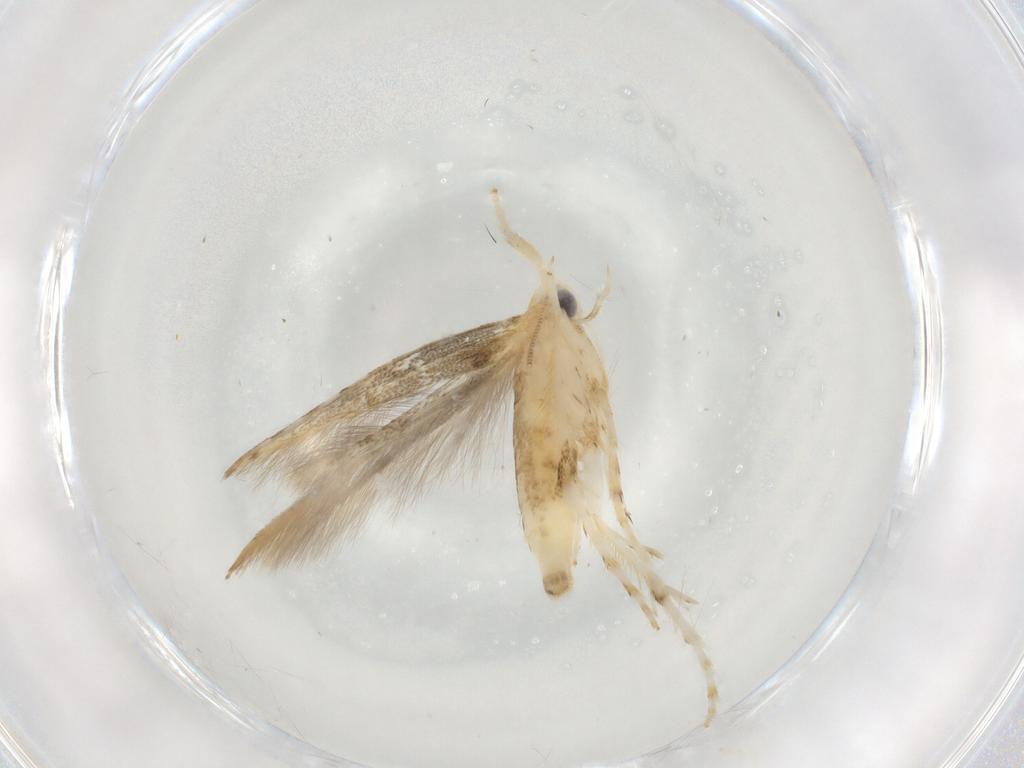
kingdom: Animalia
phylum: Arthropoda
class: Insecta
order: Lepidoptera
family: Gracillariidae
